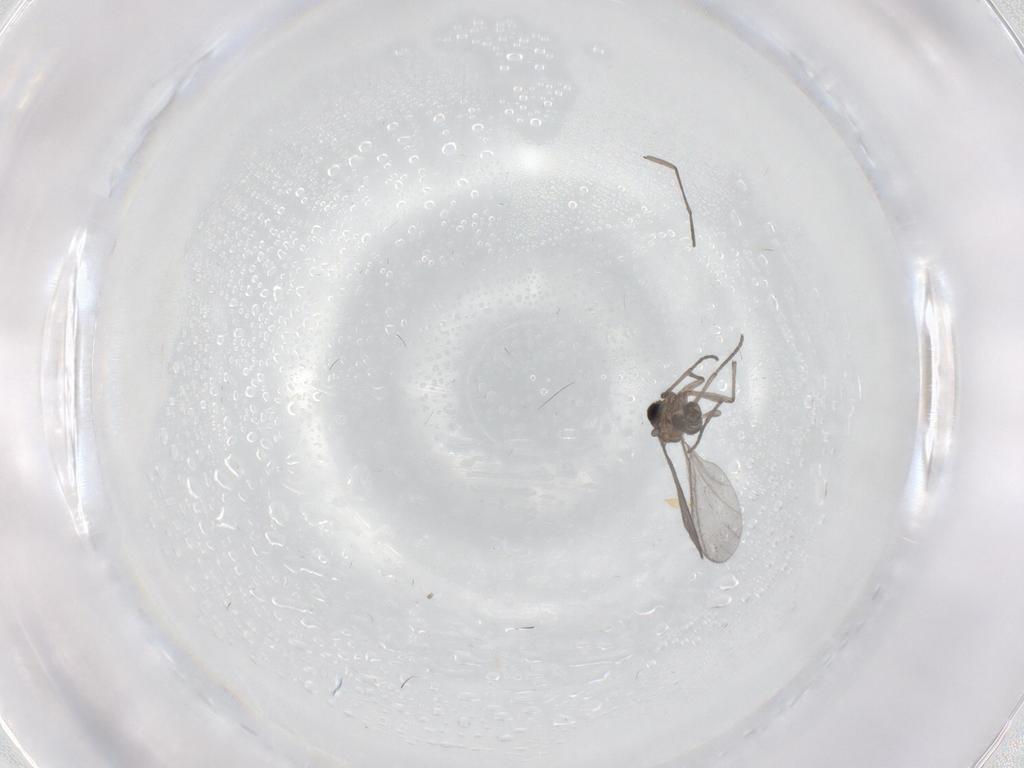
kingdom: Animalia
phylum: Arthropoda
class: Insecta
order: Diptera
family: Sciaridae
